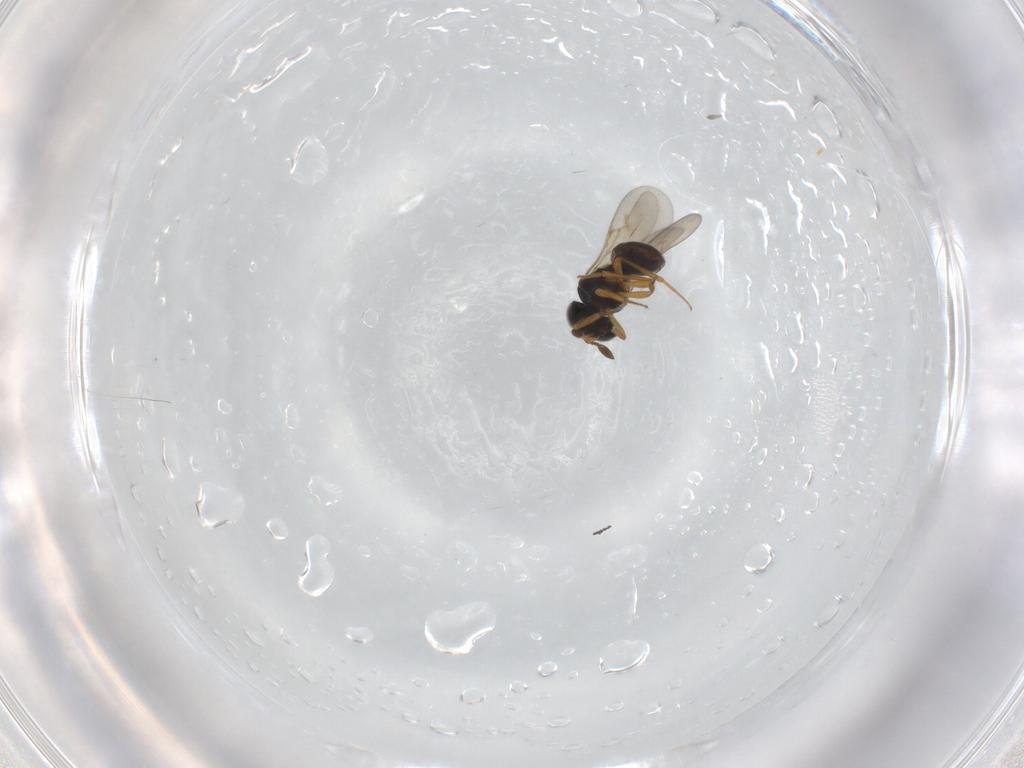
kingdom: Animalia
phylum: Arthropoda
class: Insecta
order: Hymenoptera
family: Scelionidae
